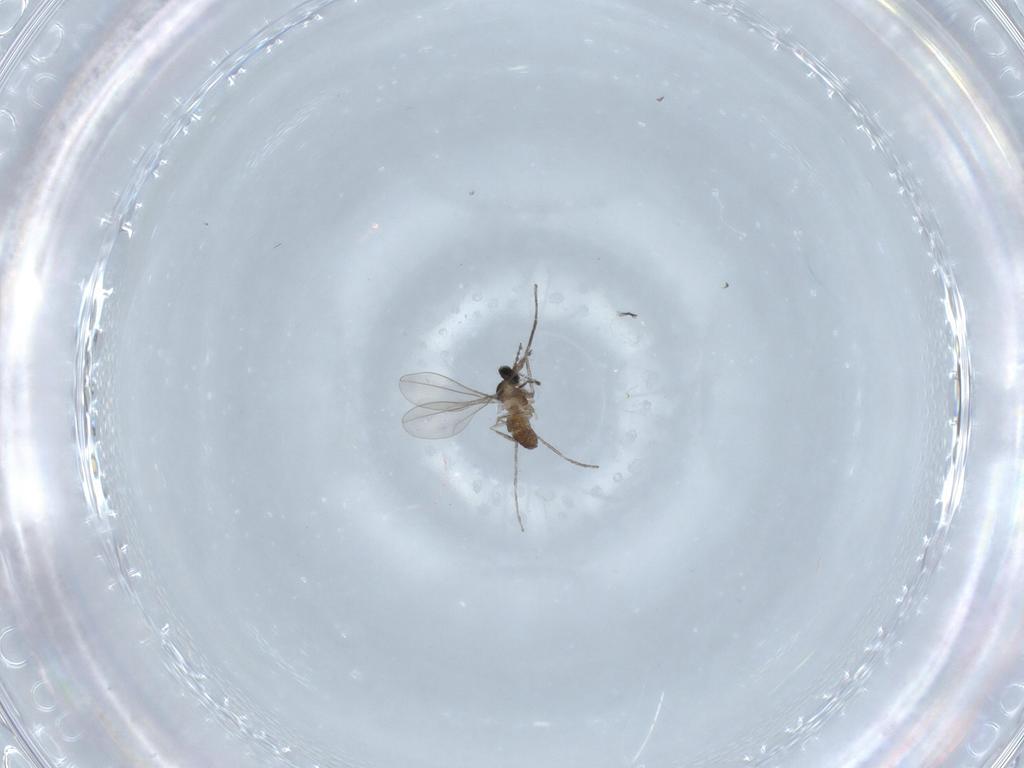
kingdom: Animalia
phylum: Arthropoda
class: Insecta
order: Diptera
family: Cecidomyiidae
